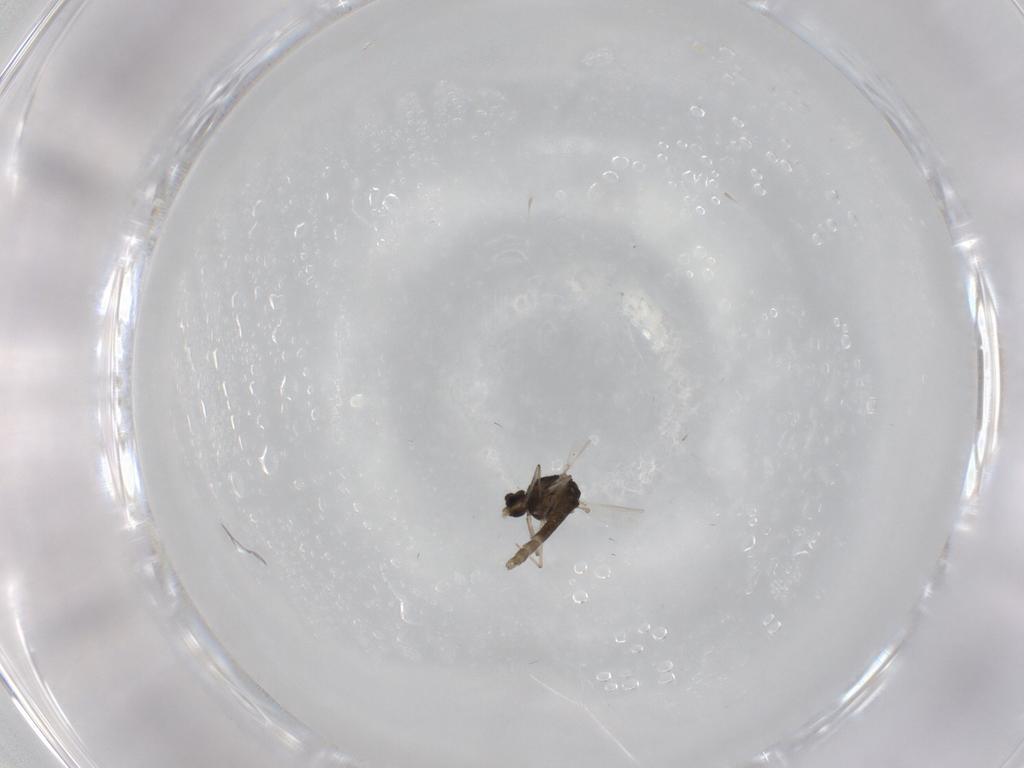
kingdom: Animalia
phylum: Arthropoda
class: Insecta
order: Diptera
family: Chironomidae
